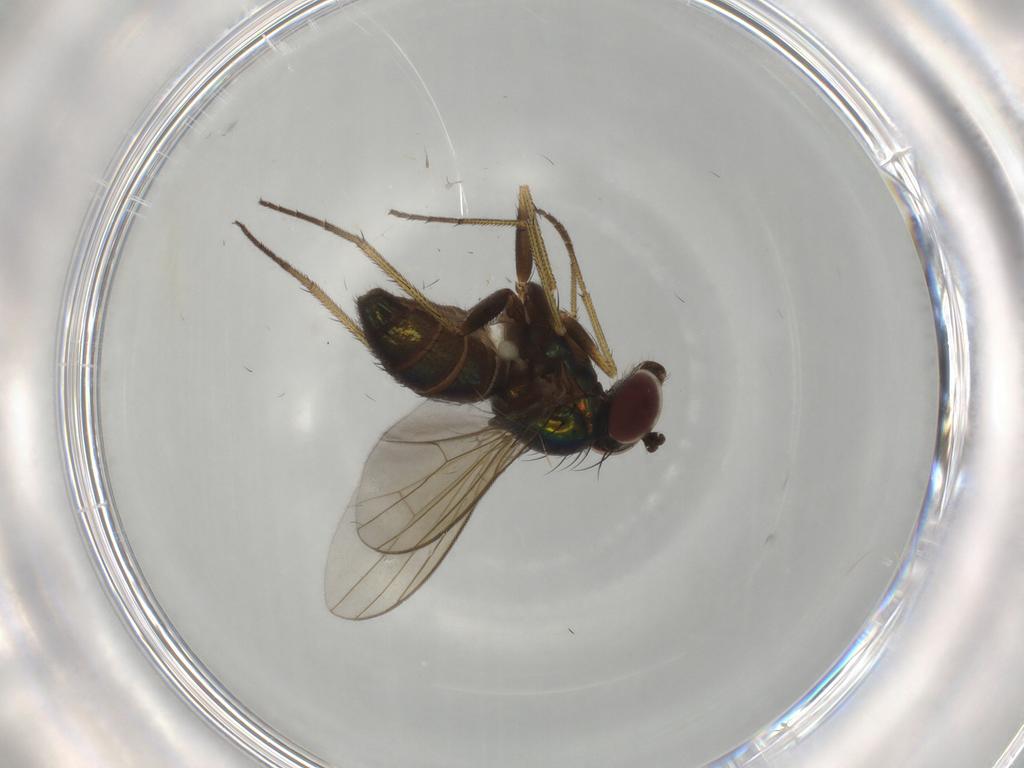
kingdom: Animalia
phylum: Arthropoda
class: Insecta
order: Diptera
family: Dolichopodidae
